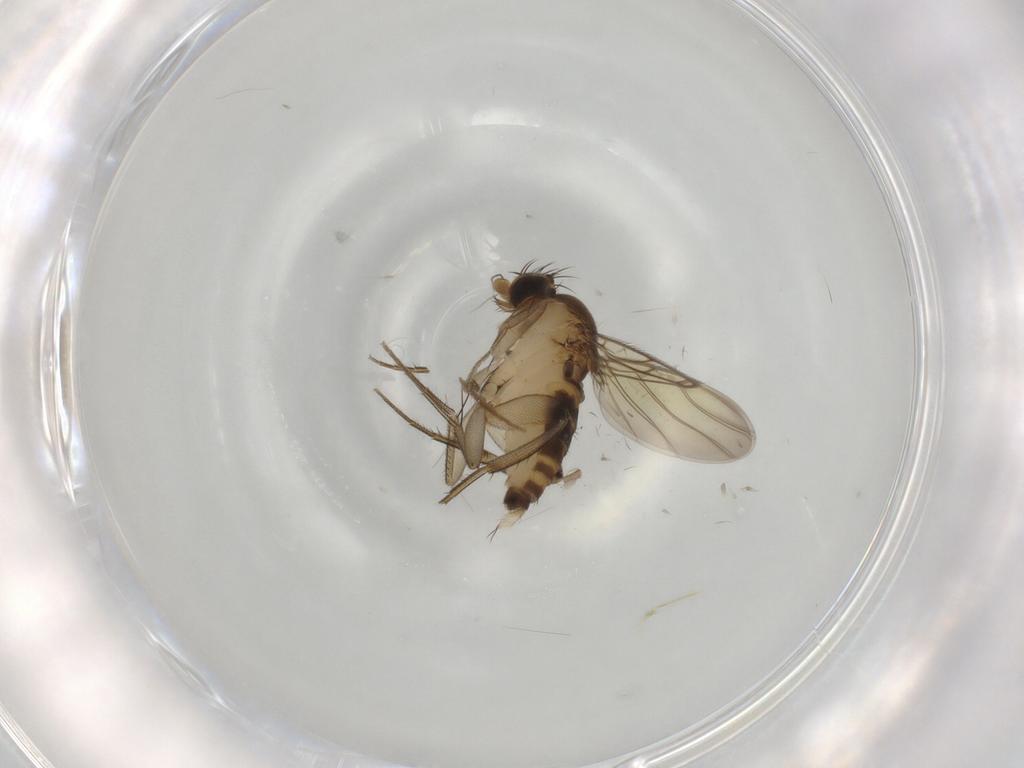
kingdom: Animalia
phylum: Arthropoda
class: Insecta
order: Diptera
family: Phoridae
